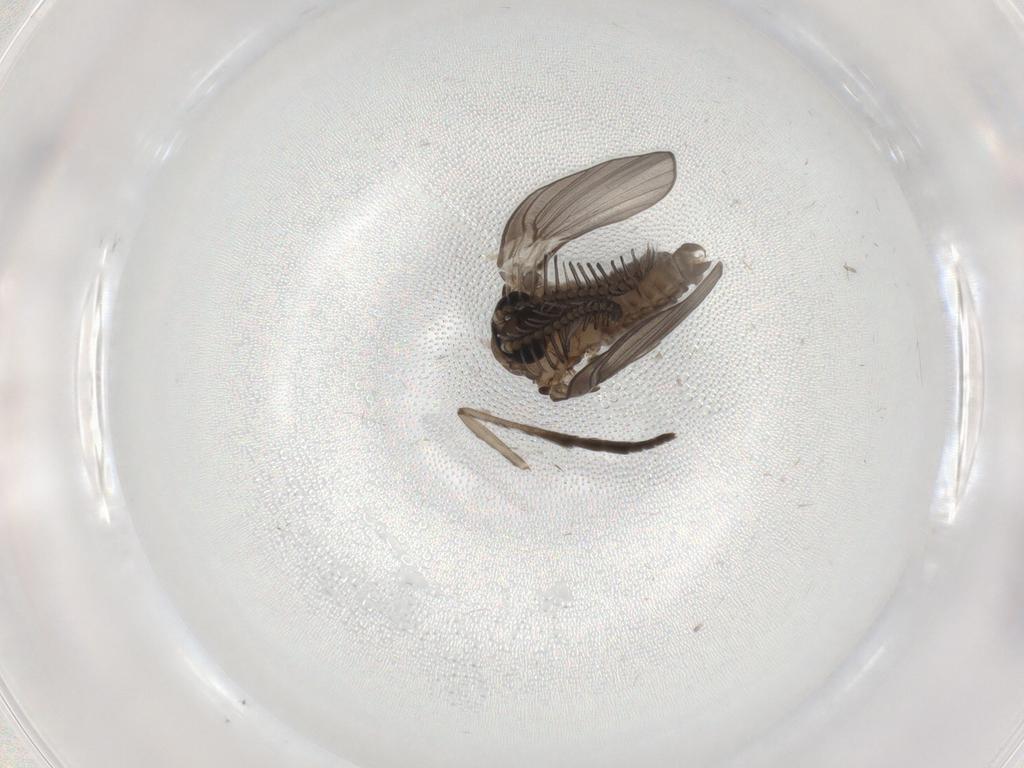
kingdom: Animalia
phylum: Arthropoda
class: Insecta
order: Diptera
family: Psychodidae
